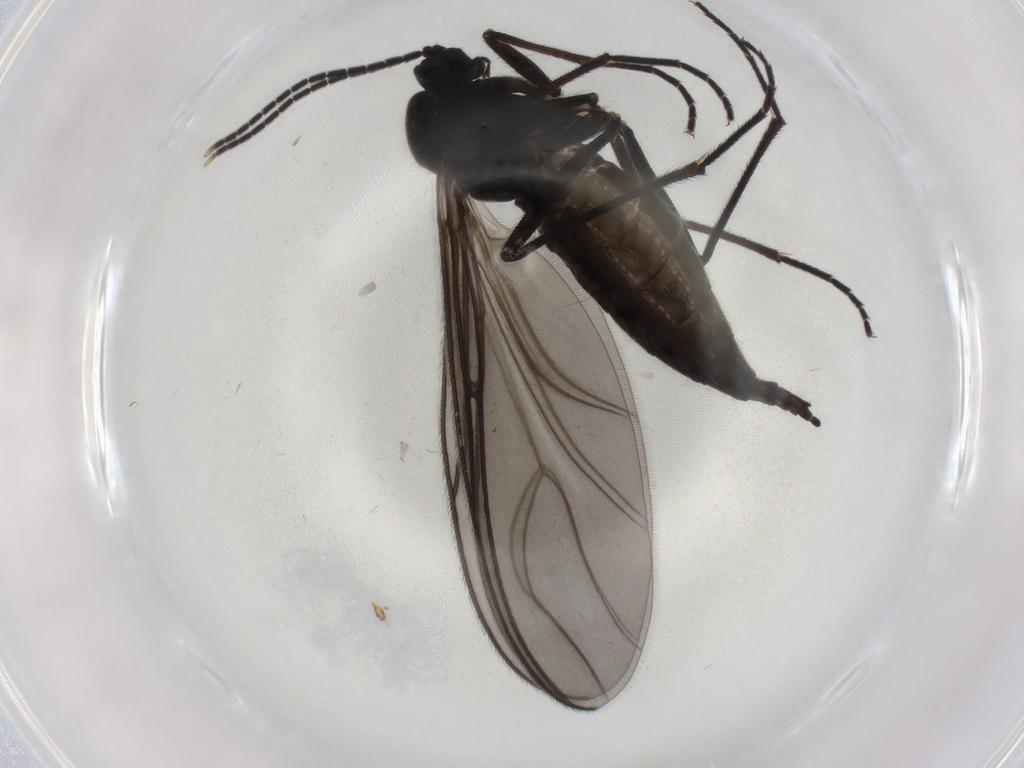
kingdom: Animalia
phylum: Arthropoda
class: Insecta
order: Diptera
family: Sciaridae
